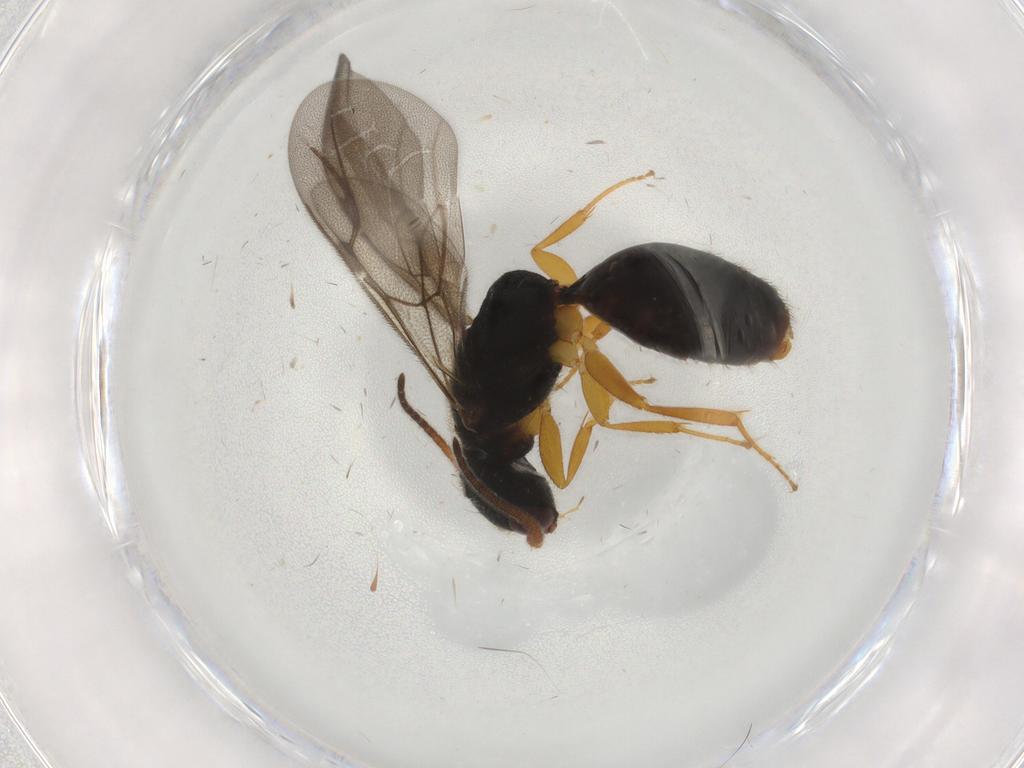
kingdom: Animalia
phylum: Arthropoda
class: Insecta
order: Hymenoptera
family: Bethylidae
